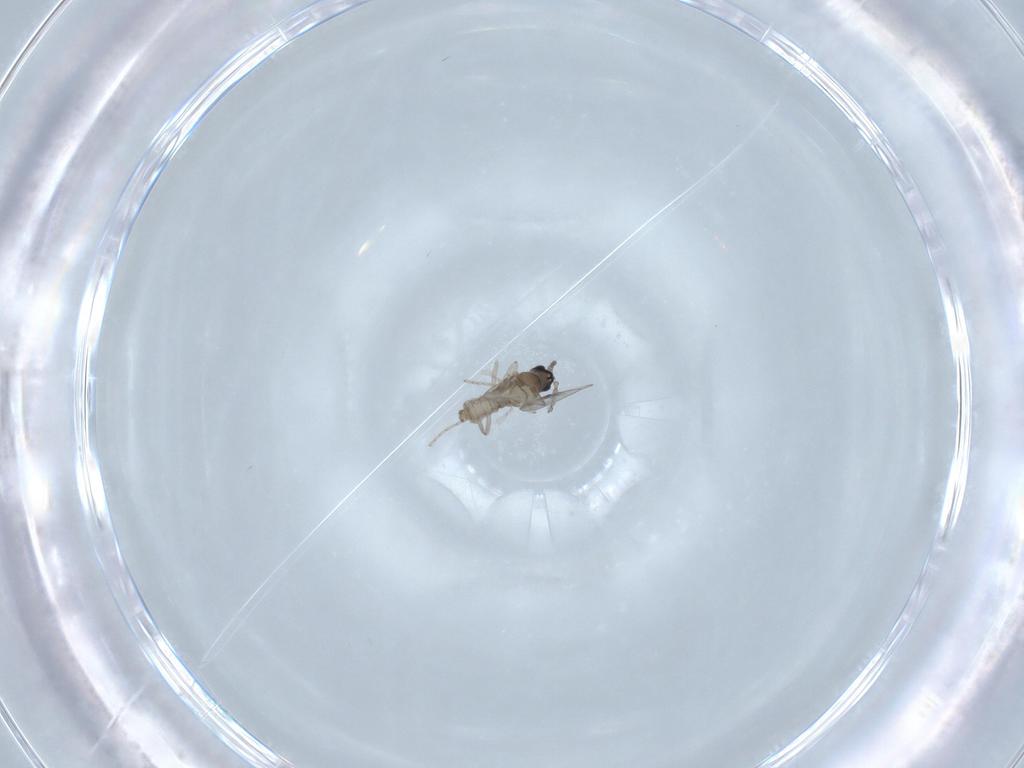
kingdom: Animalia
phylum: Arthropoda
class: Insecta
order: Diptera
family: Cecidomyiidae
